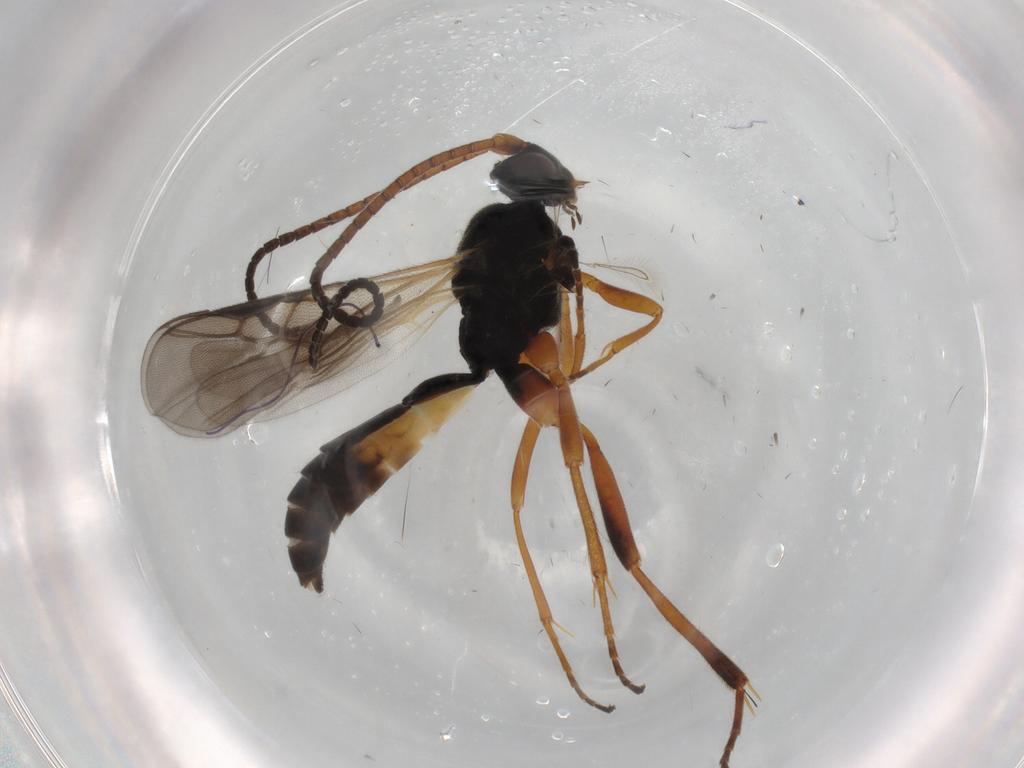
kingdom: Animalia
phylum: Arthropoda
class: Insecta
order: Hymenoptera
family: Braconidae
